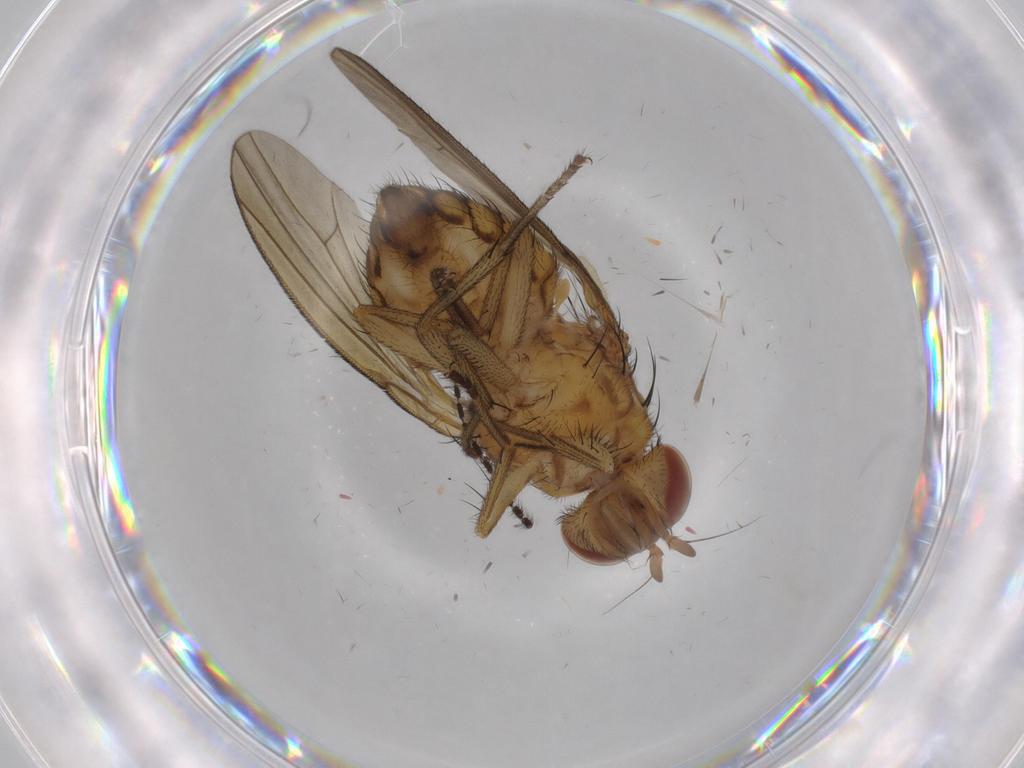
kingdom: Animalia
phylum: Arthropoda
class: Insecta
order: Diptera
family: Sciaridae
